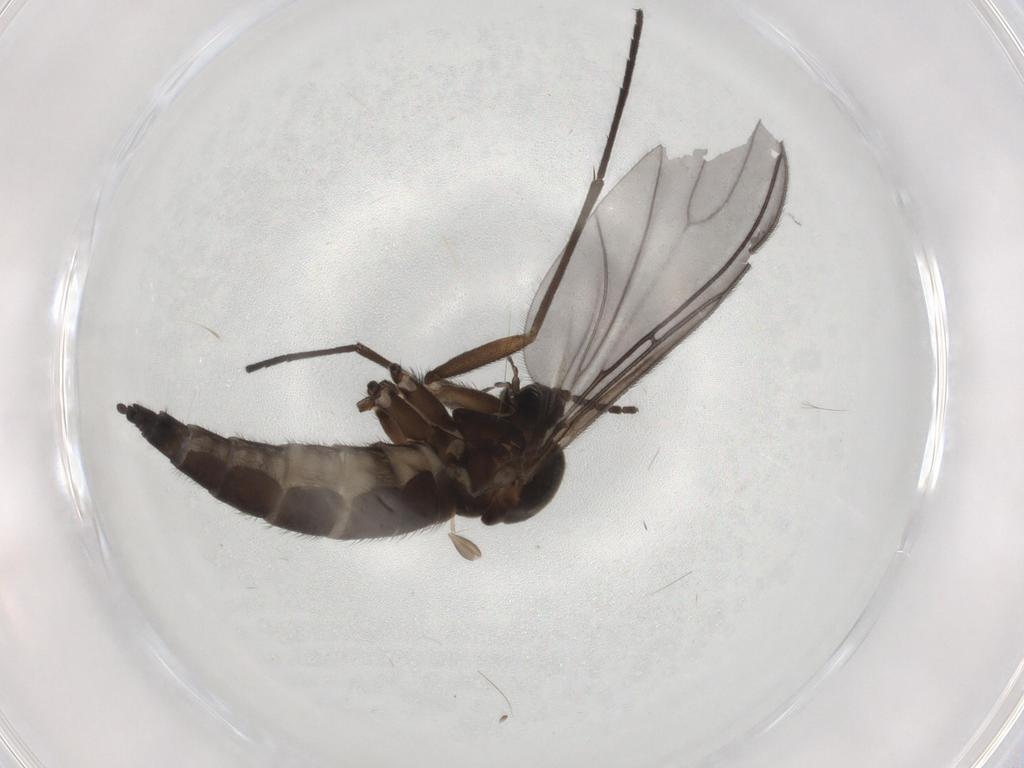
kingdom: Animalia
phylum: Arthropoda
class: Insecta
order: Diptera
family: Sciaridae
